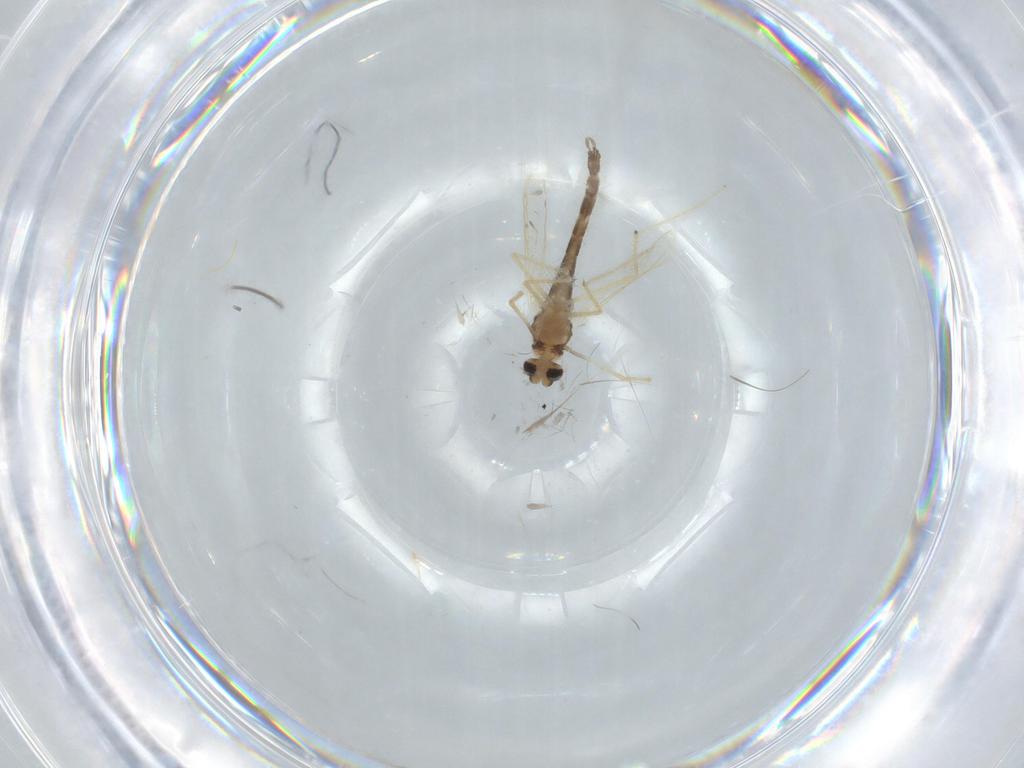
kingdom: Animalia
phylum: Arthropoda
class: Insecta
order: Diptera
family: Chironomidae
